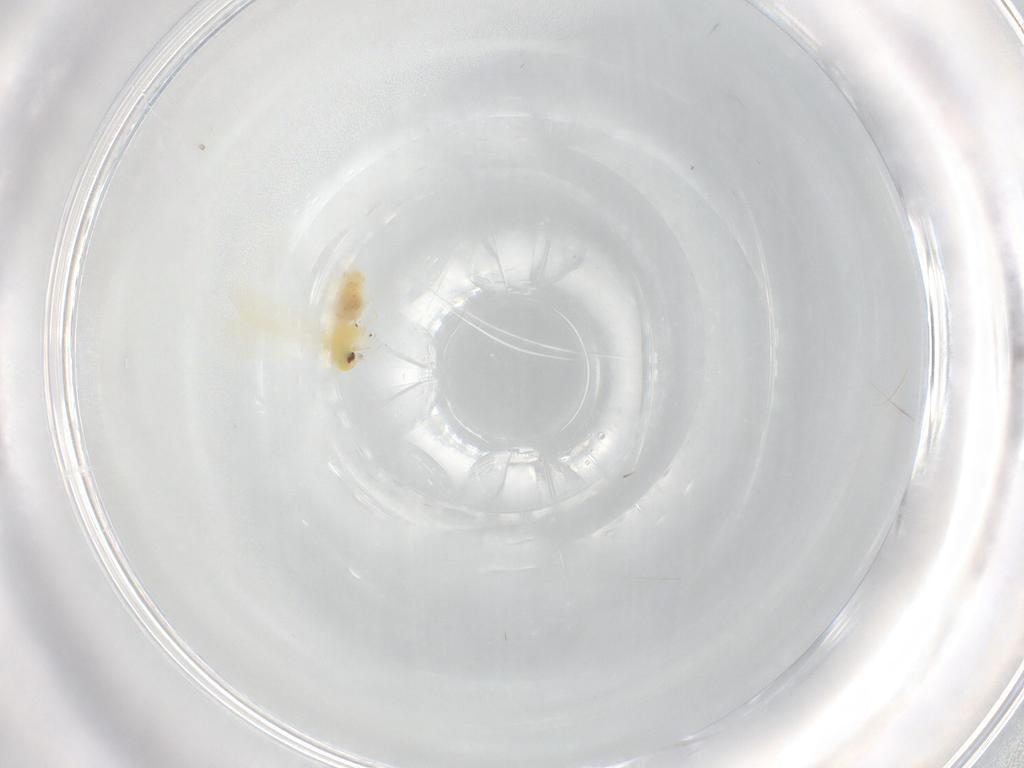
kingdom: Animalia
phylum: Arthropoda
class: Insecta
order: Hemiptera
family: Aleyrodidae
